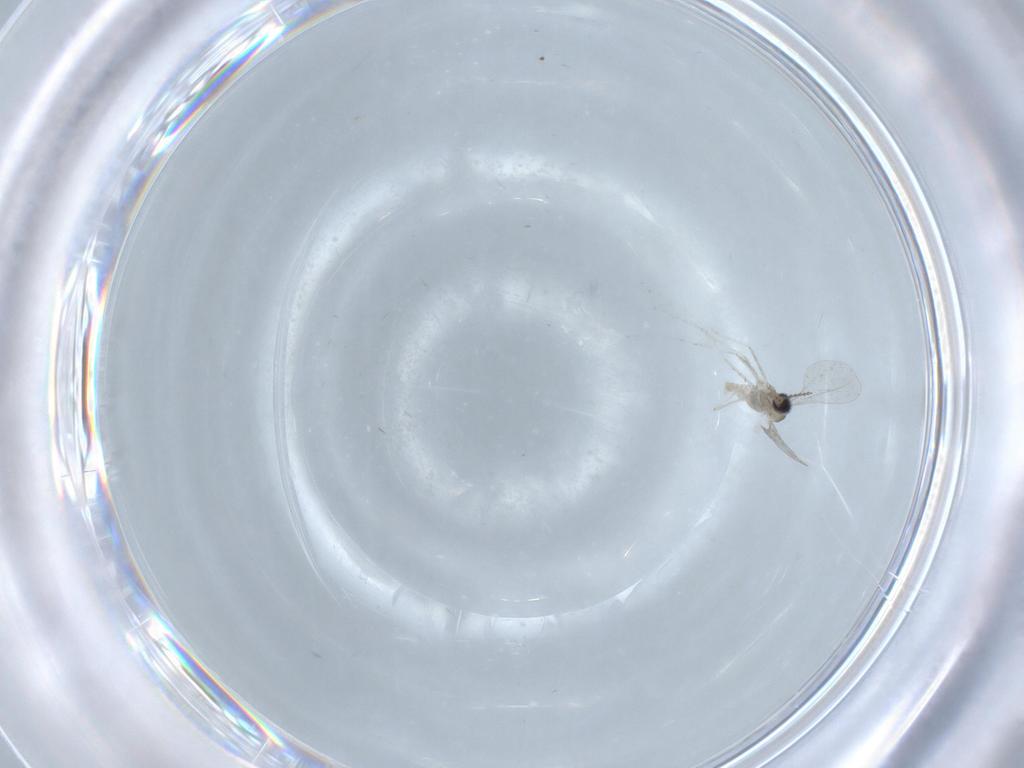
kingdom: Animalia
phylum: Arthropoda
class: Insecta
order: Diptera
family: Cecidomyiidae
